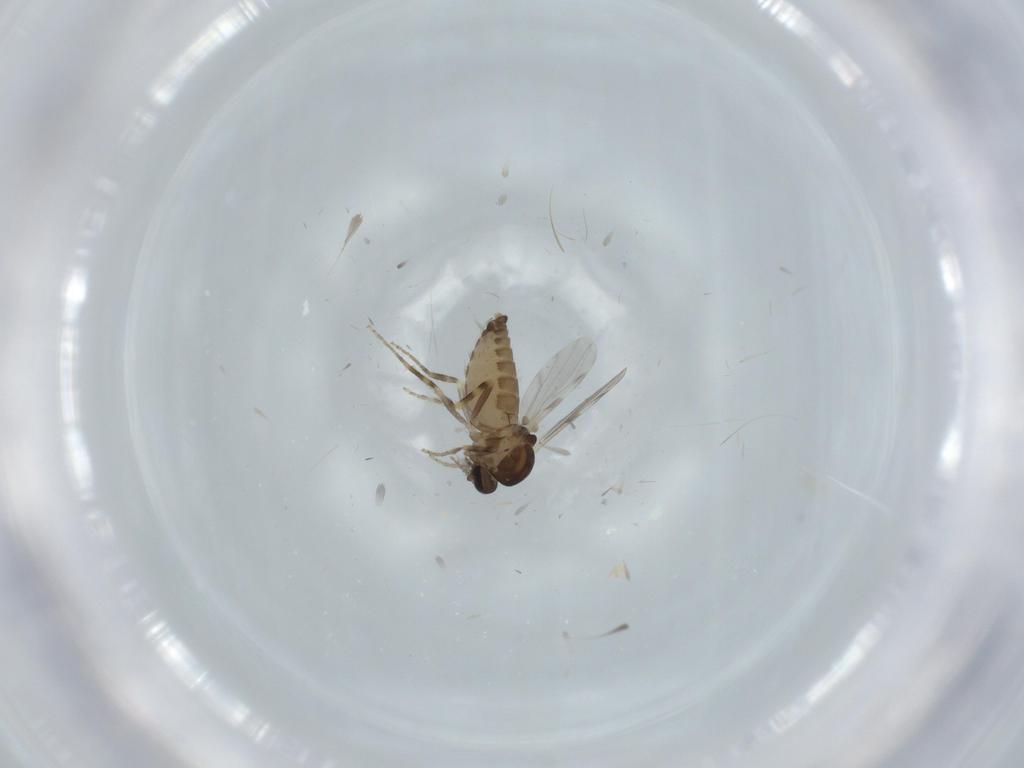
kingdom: Animalia
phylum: Arthropoda
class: Insecta
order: Diptera
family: Ceratopogonidae
